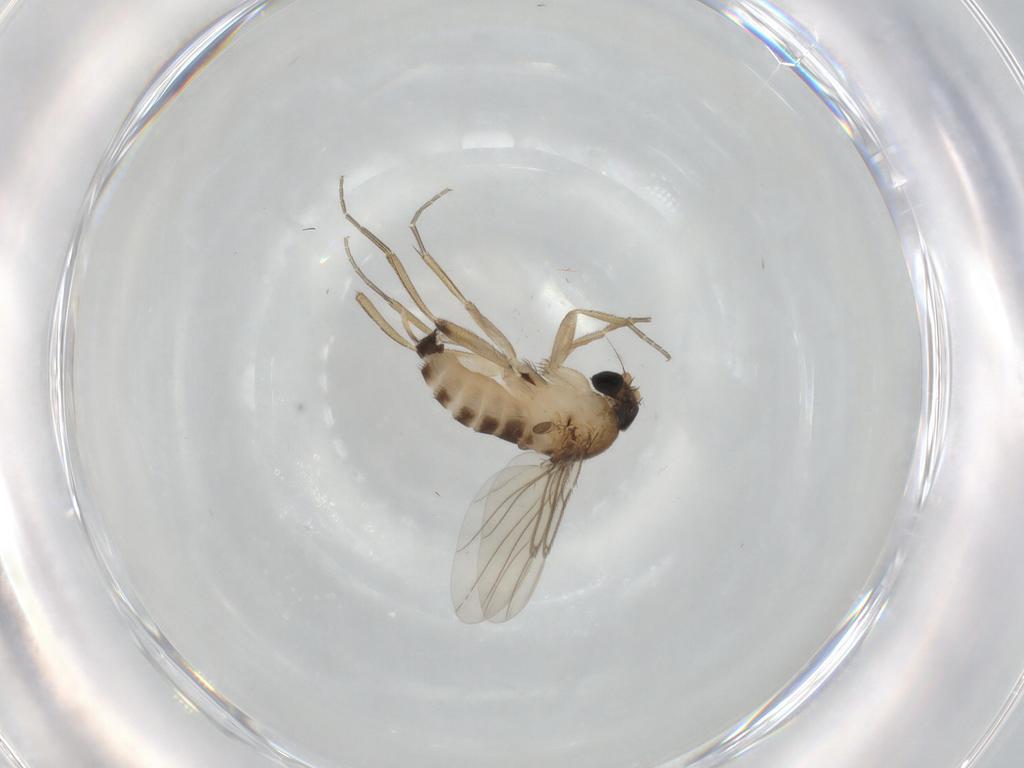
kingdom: Animalia
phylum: Arthropoda
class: Insecta
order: Diptera
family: Phoridae
